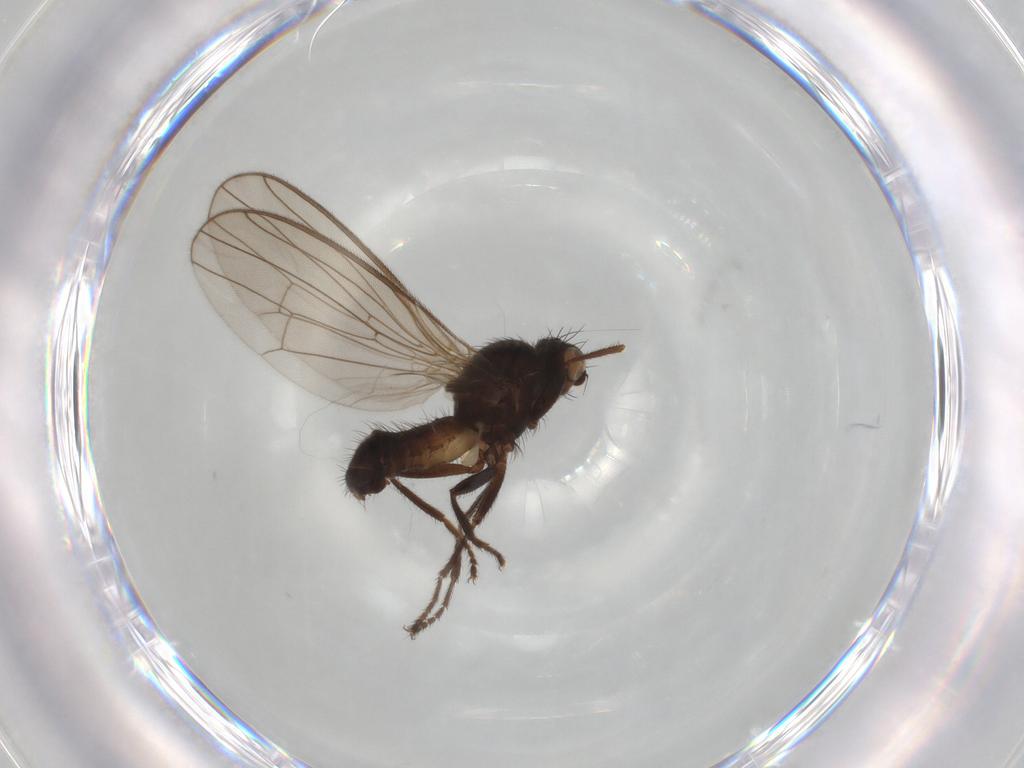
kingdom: Animalia
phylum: Arthropoda
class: Insecta
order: Diptera
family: Heleomyzidae
